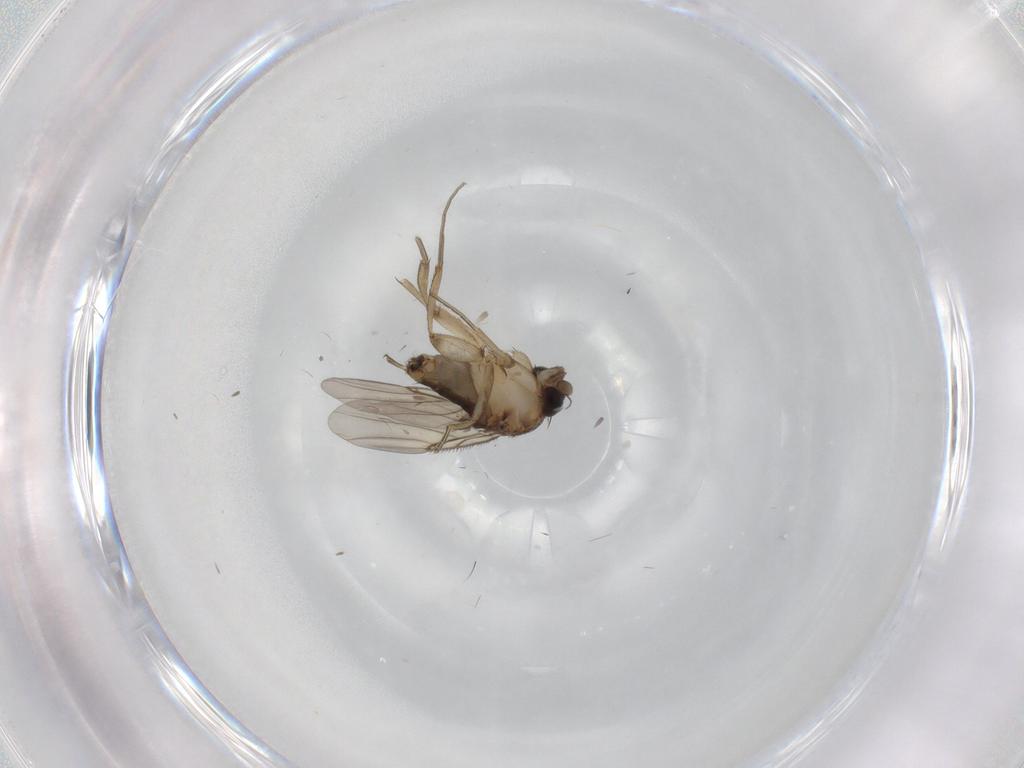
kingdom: Animalia
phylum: Arthropoda
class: Insecta
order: Diptera
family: Phoridae
